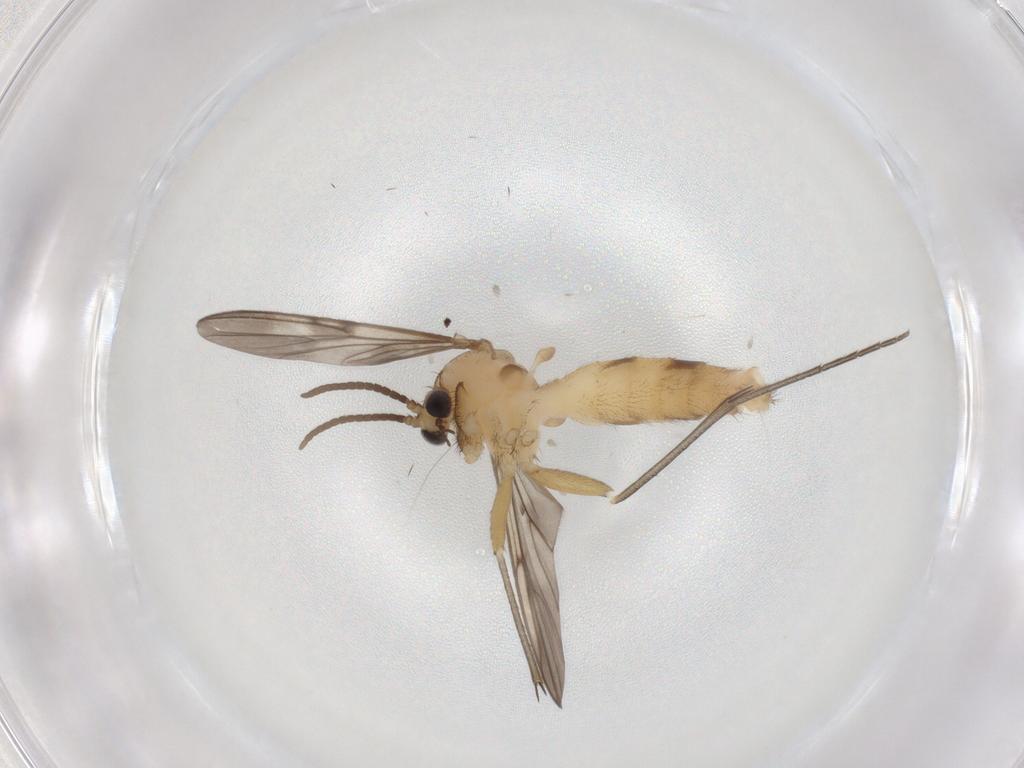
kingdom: Animalia
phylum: Arthropoda
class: Insecta
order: Diptera
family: Mycetophilidae
